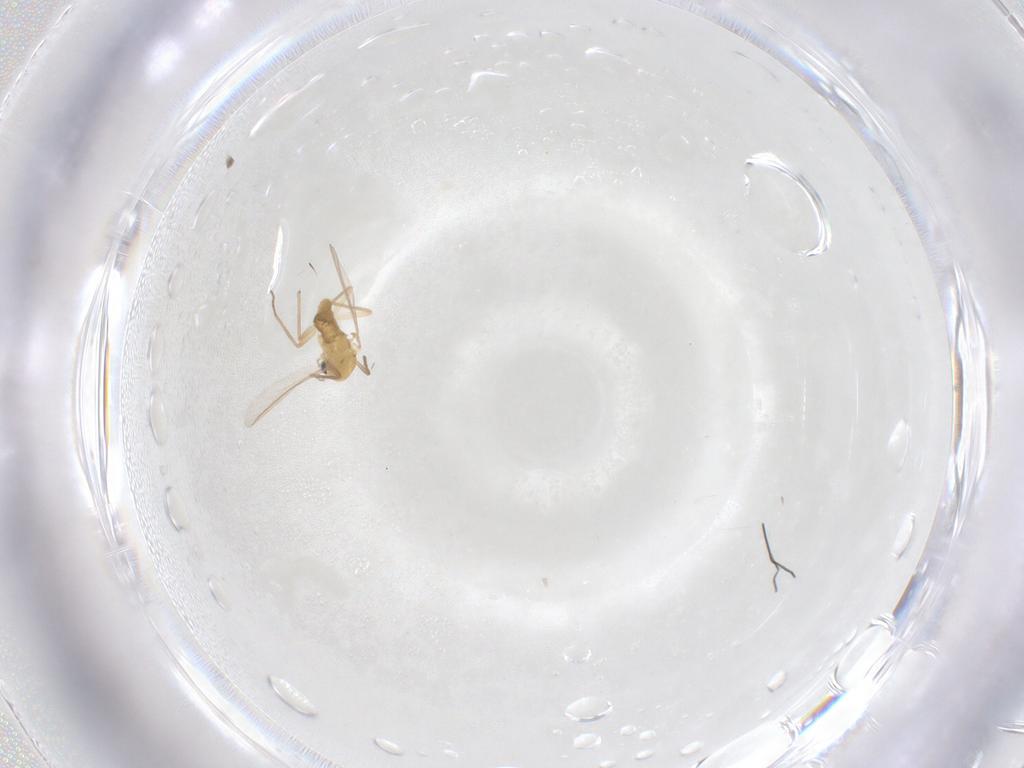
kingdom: Animalia
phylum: Arthropoda
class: Insecta
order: Diptera
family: Chironomidae
